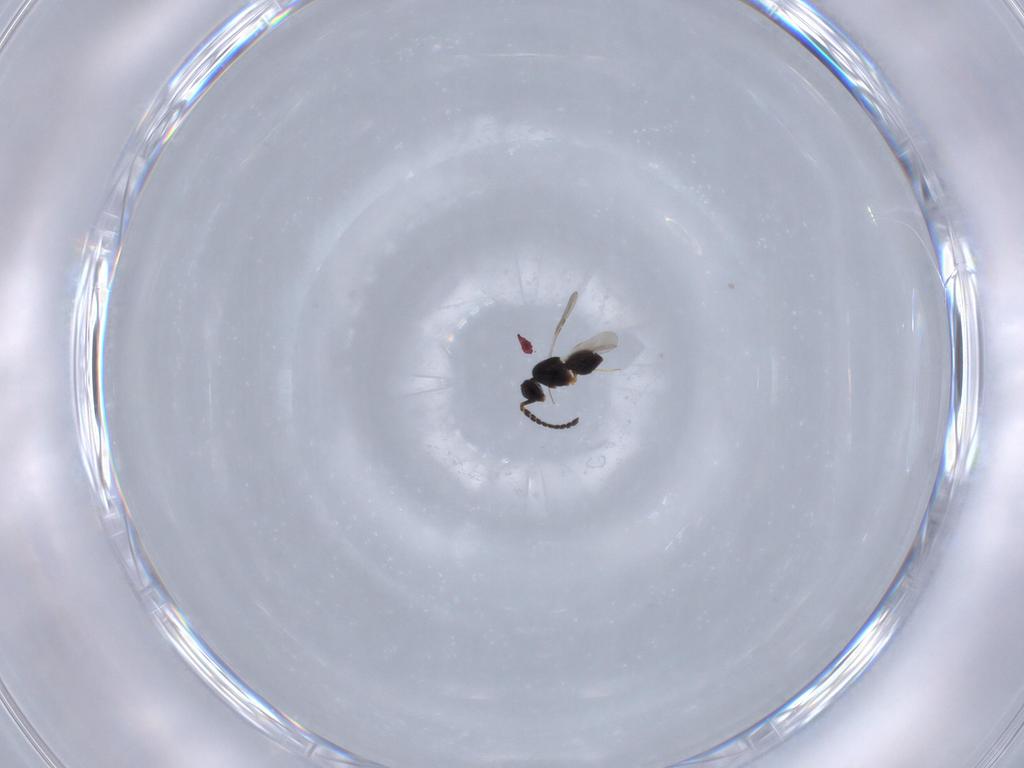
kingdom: Animalia
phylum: Arthropoda
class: Insecta
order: Hymenoptera
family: Ceraphronidae
